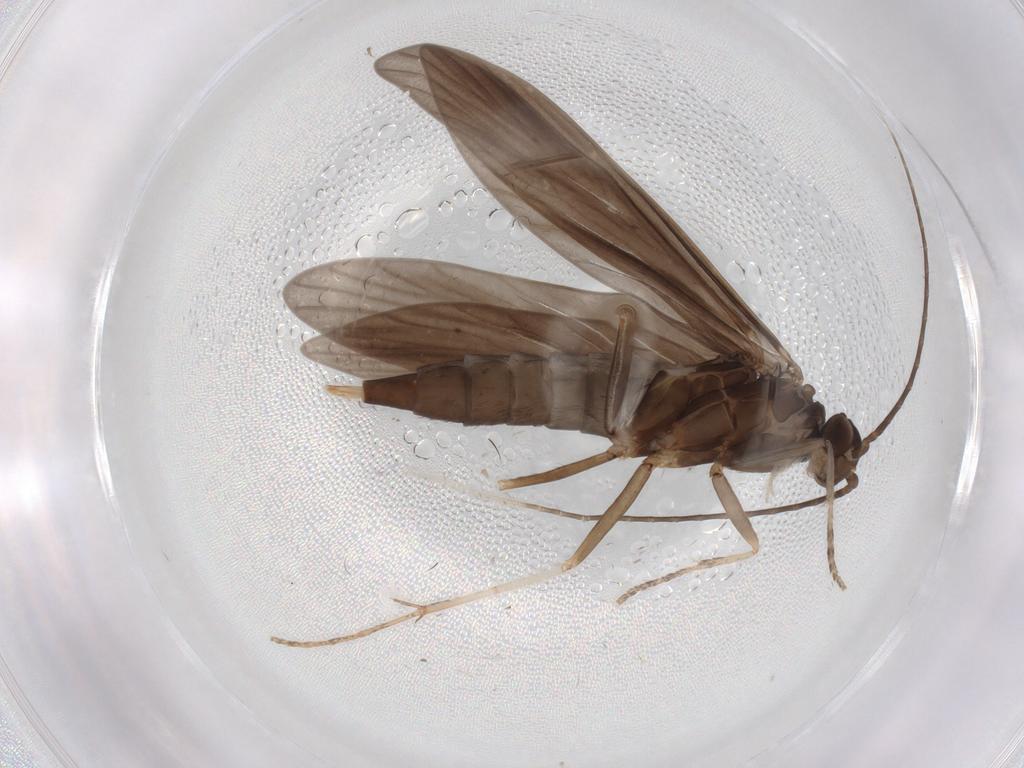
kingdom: Animalia
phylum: Arthropoda
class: Insecta
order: Trichoptera
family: Xiphocentronidae
